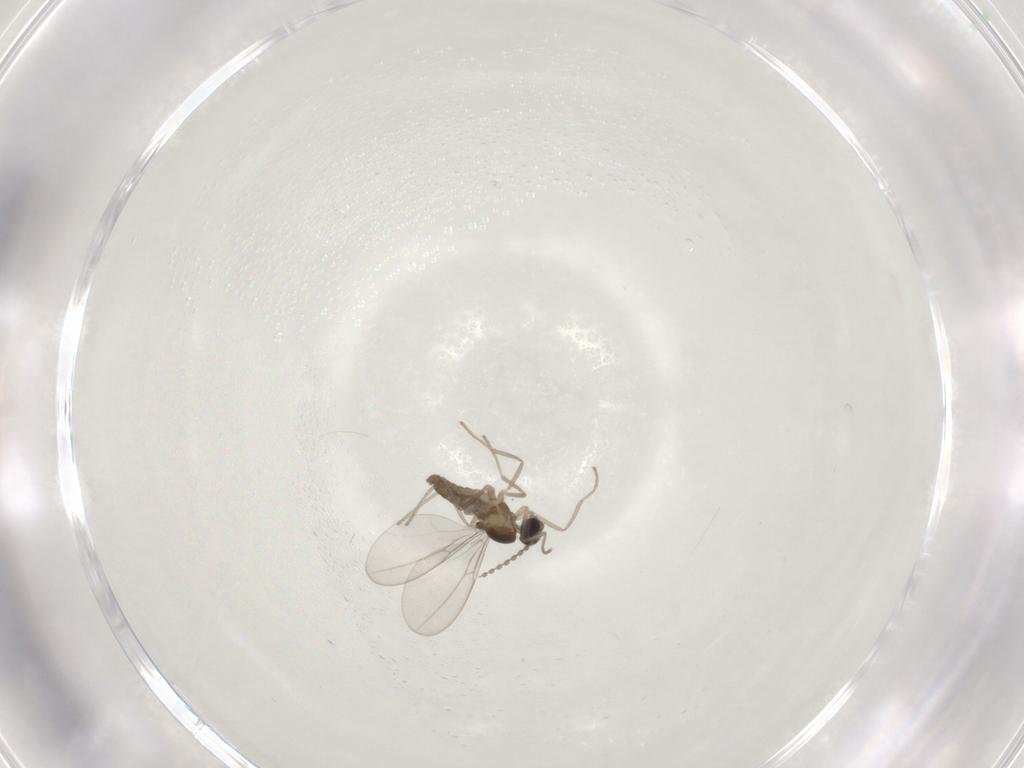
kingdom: Animalia
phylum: Arthropoda
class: Insecta
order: Diptera
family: Cecidomyiidae
